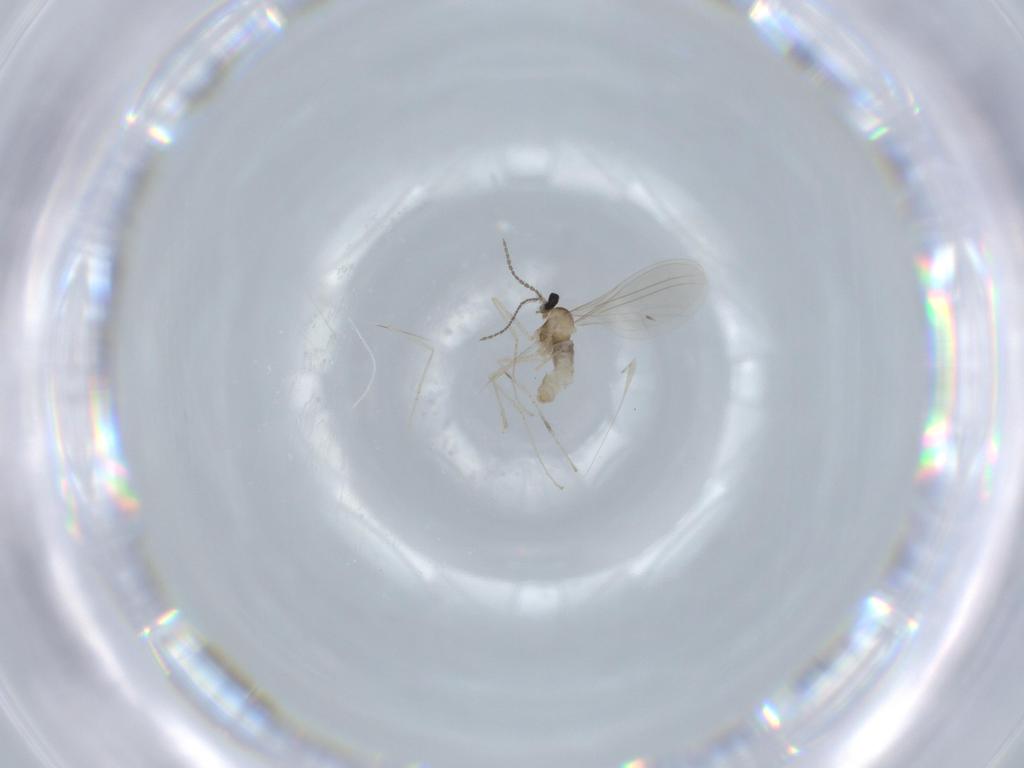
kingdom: Animalia
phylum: Arthropoda
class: Insecta
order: Diptera
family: Cecidomyiidae
